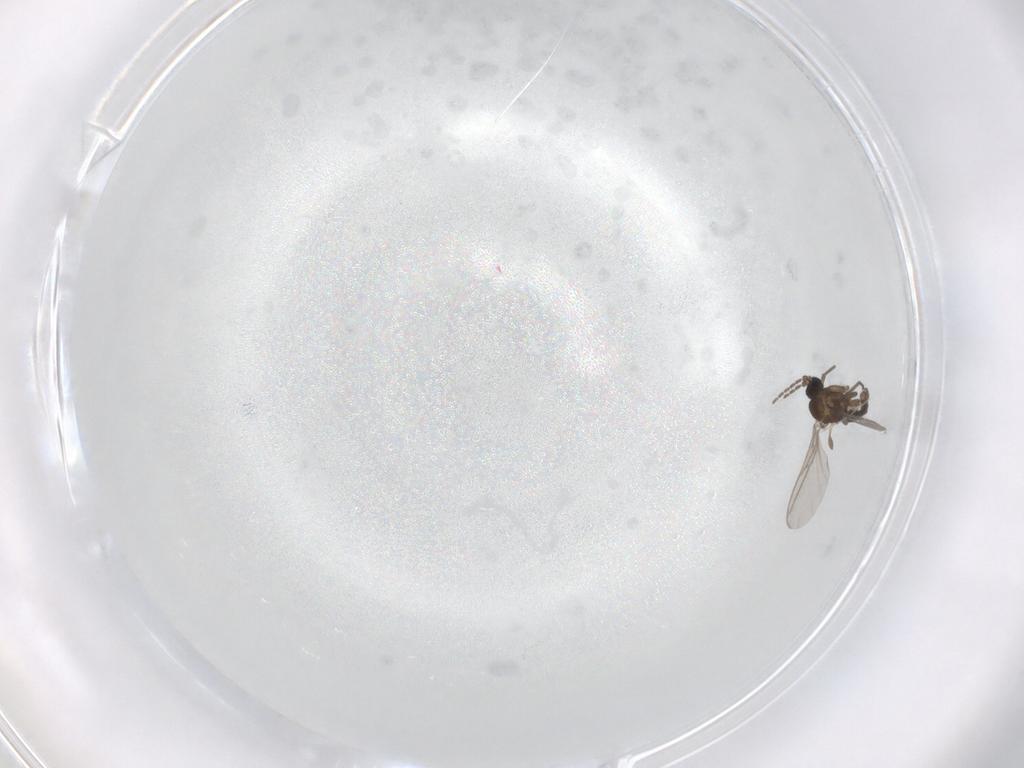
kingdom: Animalia
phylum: Arthropoda
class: Insecta
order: Diptera
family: Sciaridae
